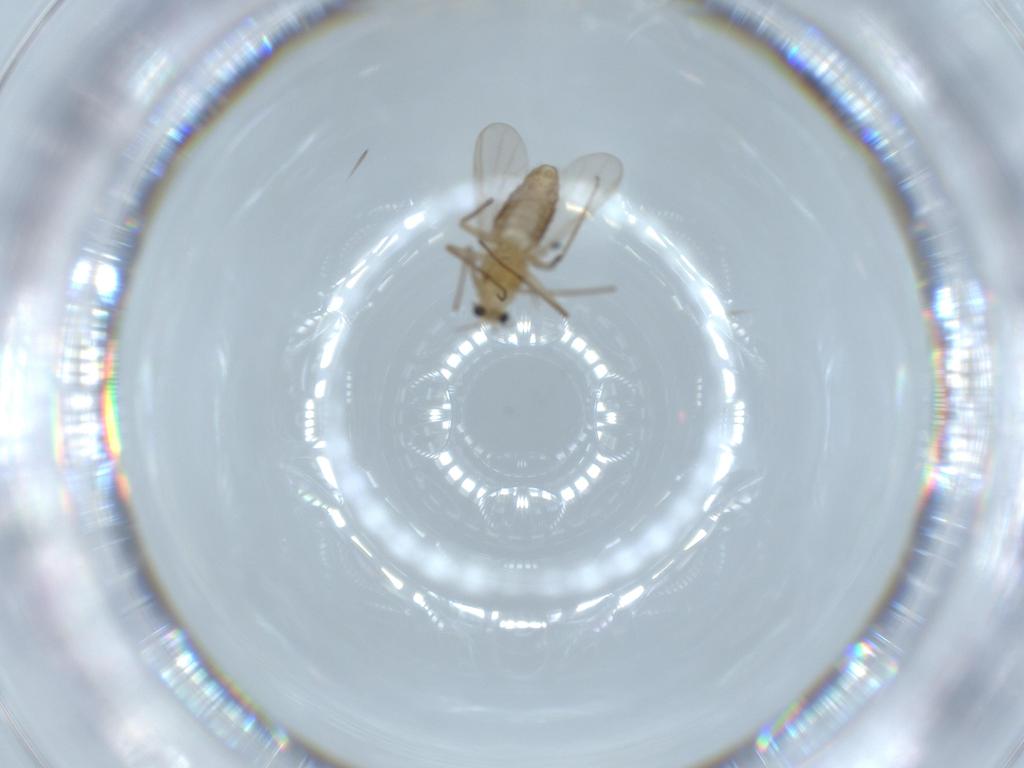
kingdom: Animalia
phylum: Arthropoda
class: Insecta
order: Diptera
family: Chironomidae
